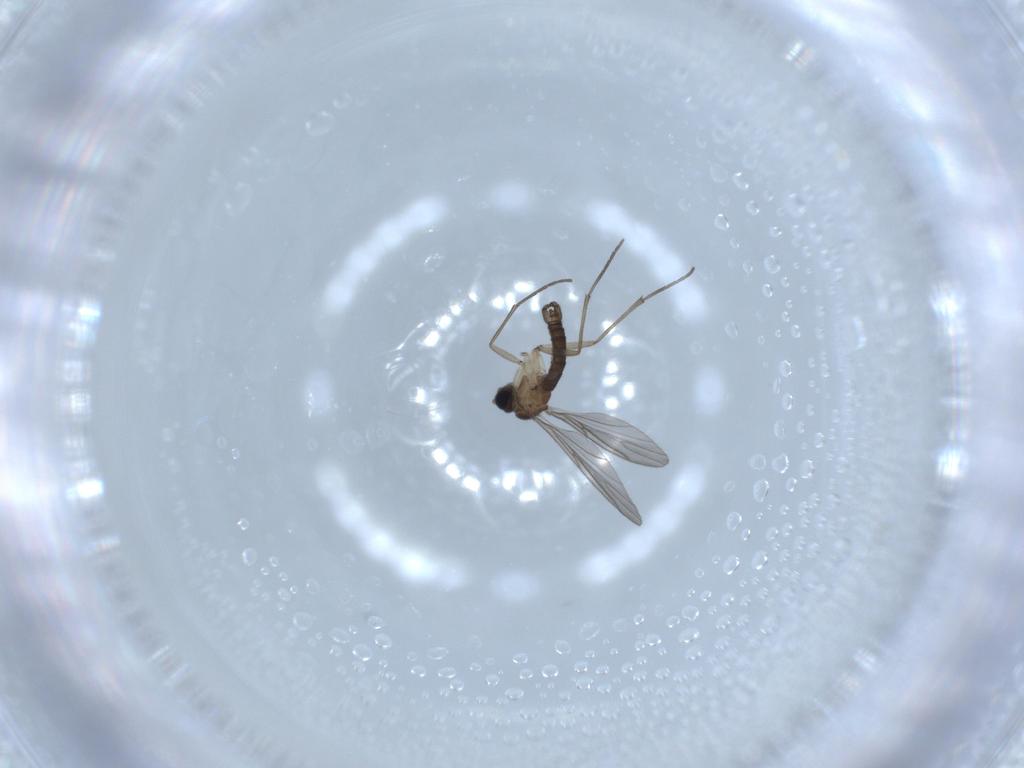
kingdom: Animalia
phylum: Arthropoda
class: Insecta
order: Diptera
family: Sciaridae
